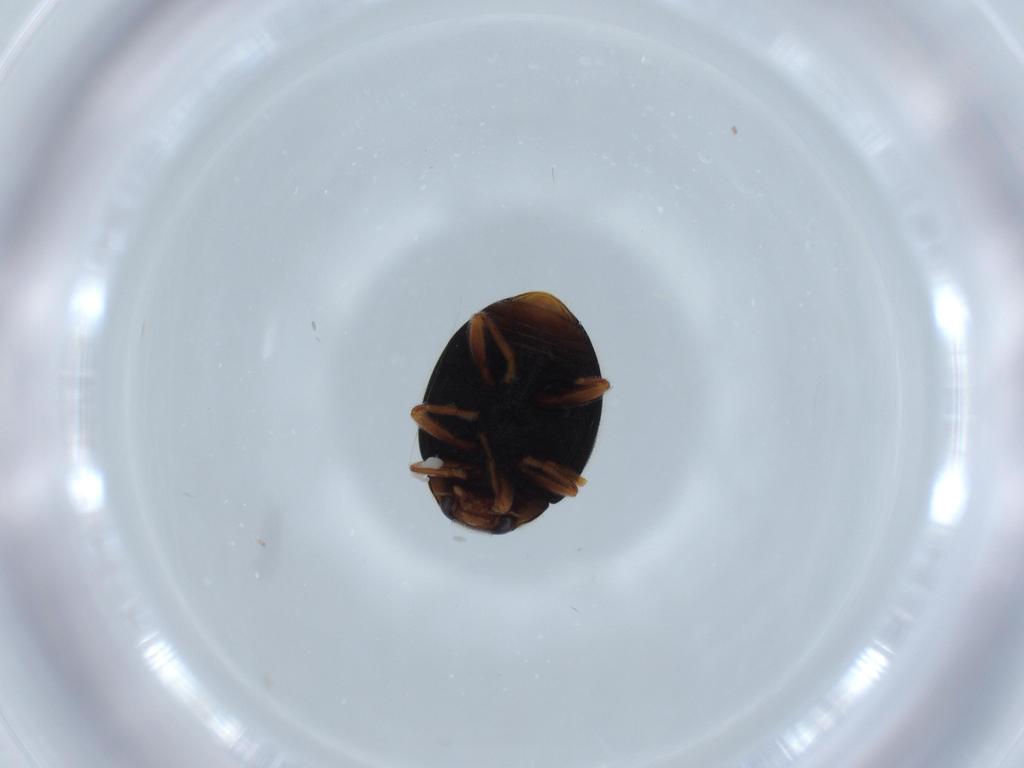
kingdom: Animalia
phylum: Arthropoda
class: Insecta
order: Coleoptera
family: Coccinellidae
